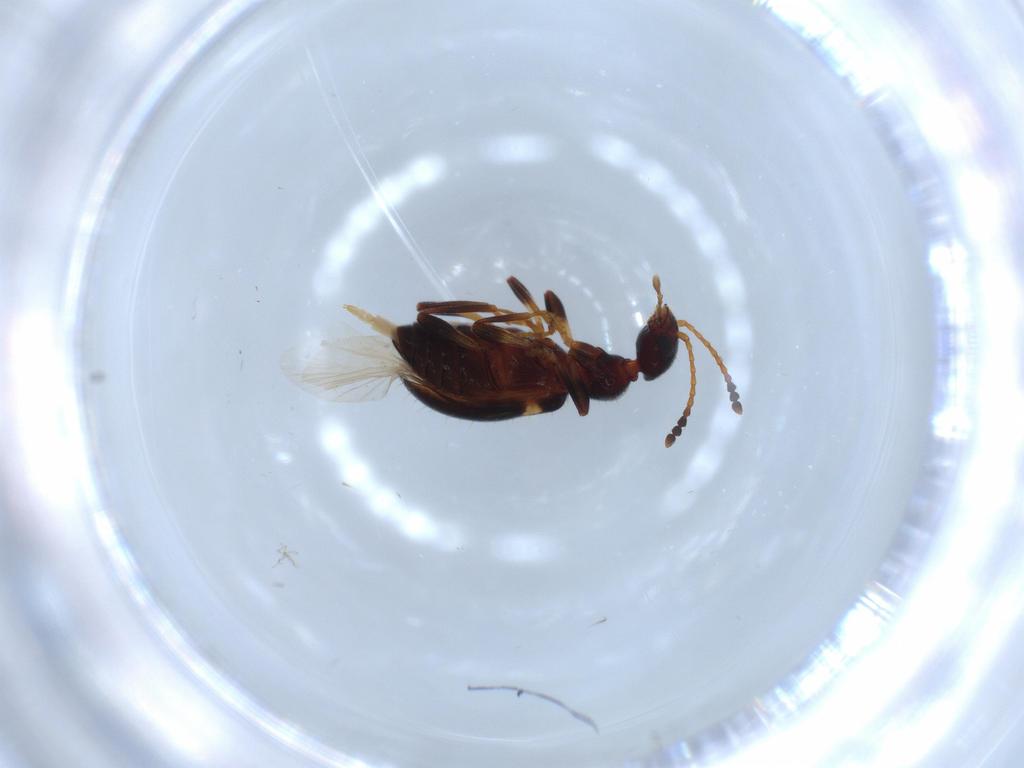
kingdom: Animalia
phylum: Arthropoda
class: Insecta
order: Coleoptera
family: Anthicidae
